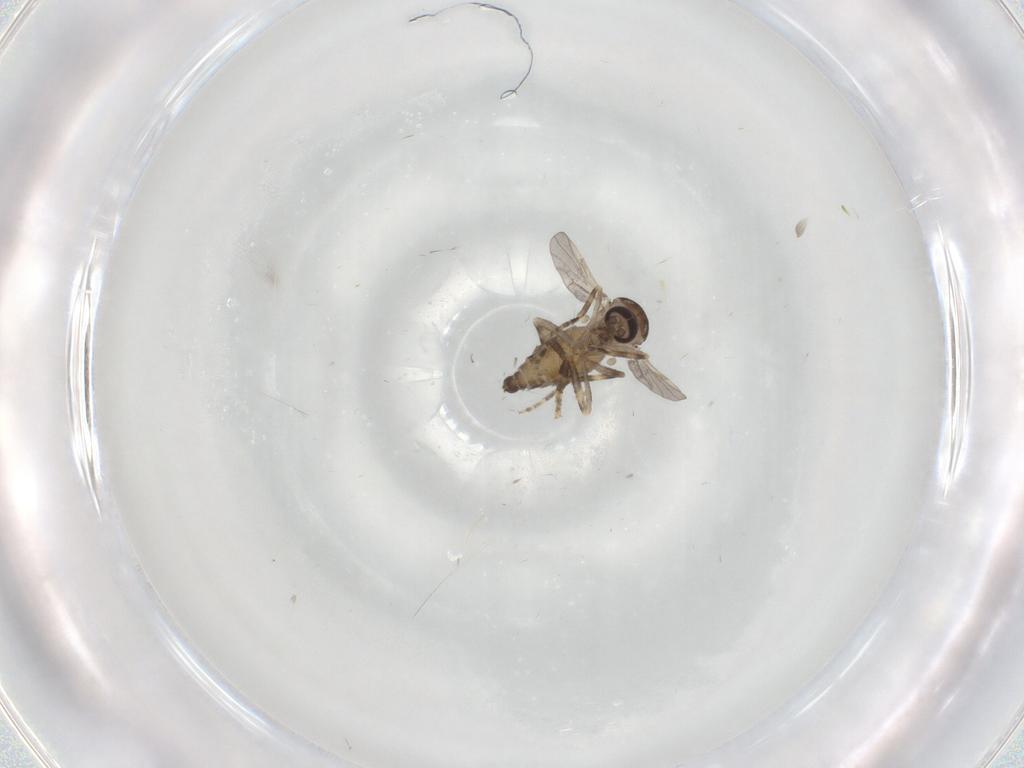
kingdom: Animalia
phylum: Arthropoda
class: Insecta
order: Diptera
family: Ceratopogonidae
